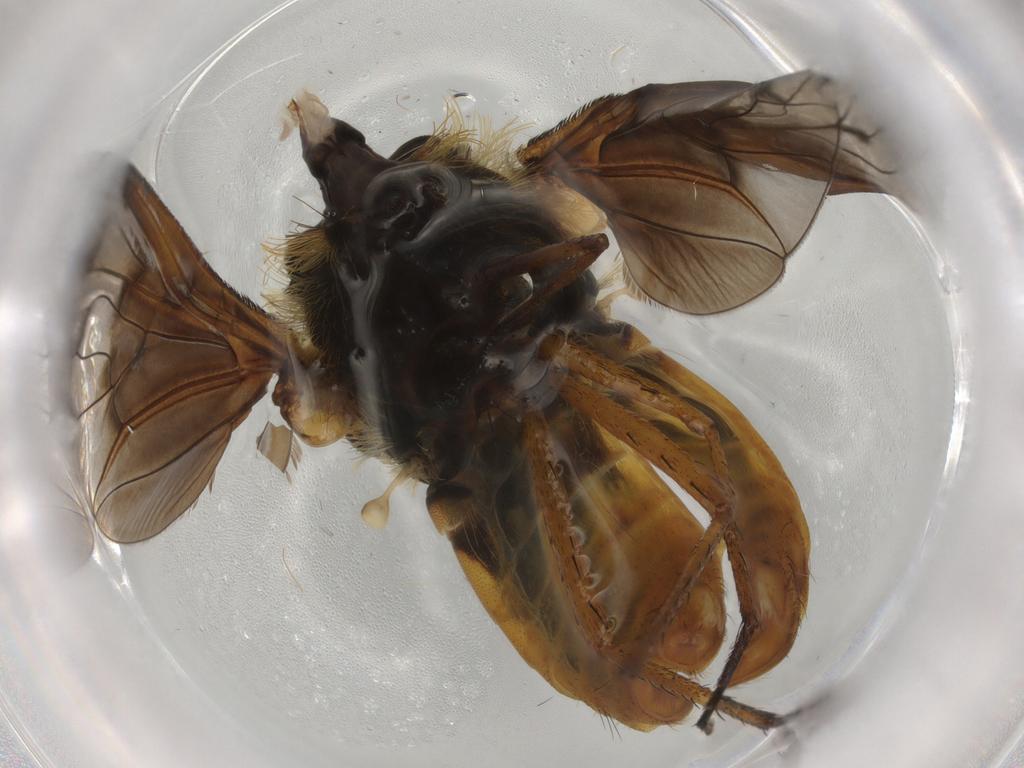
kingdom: Animalia
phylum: Arthropoda
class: Insecta
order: Diptera
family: Bombyliidae
